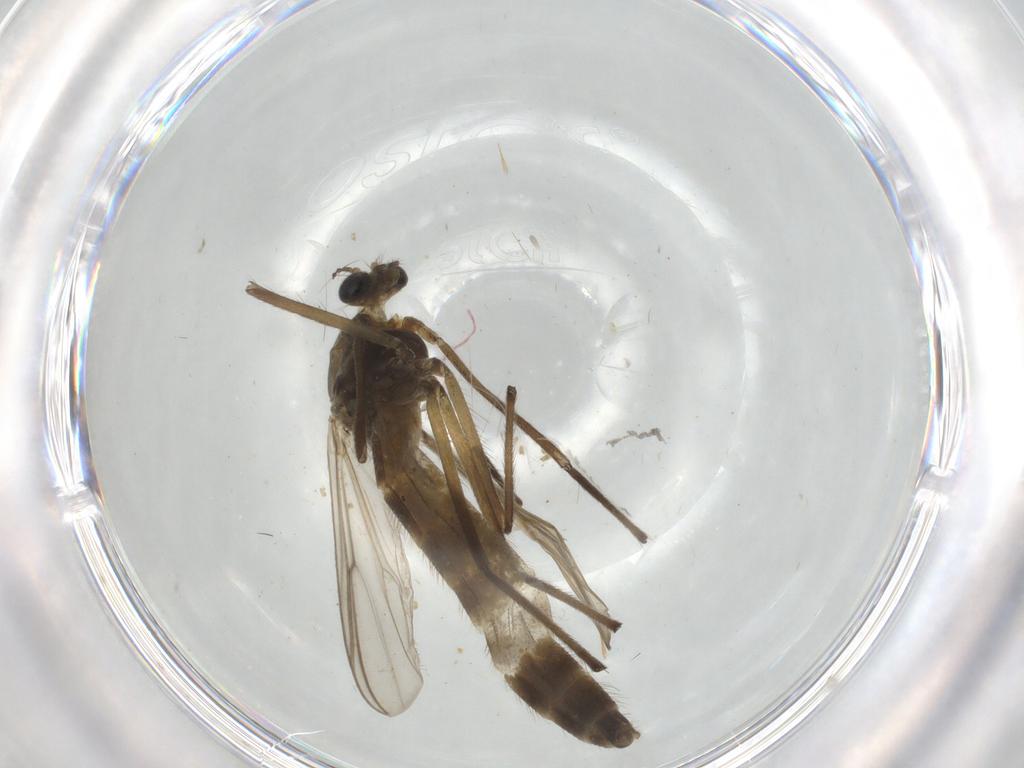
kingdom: Animalia
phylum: Arthropoda
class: Insecta
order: Diptera
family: Chironomidae
